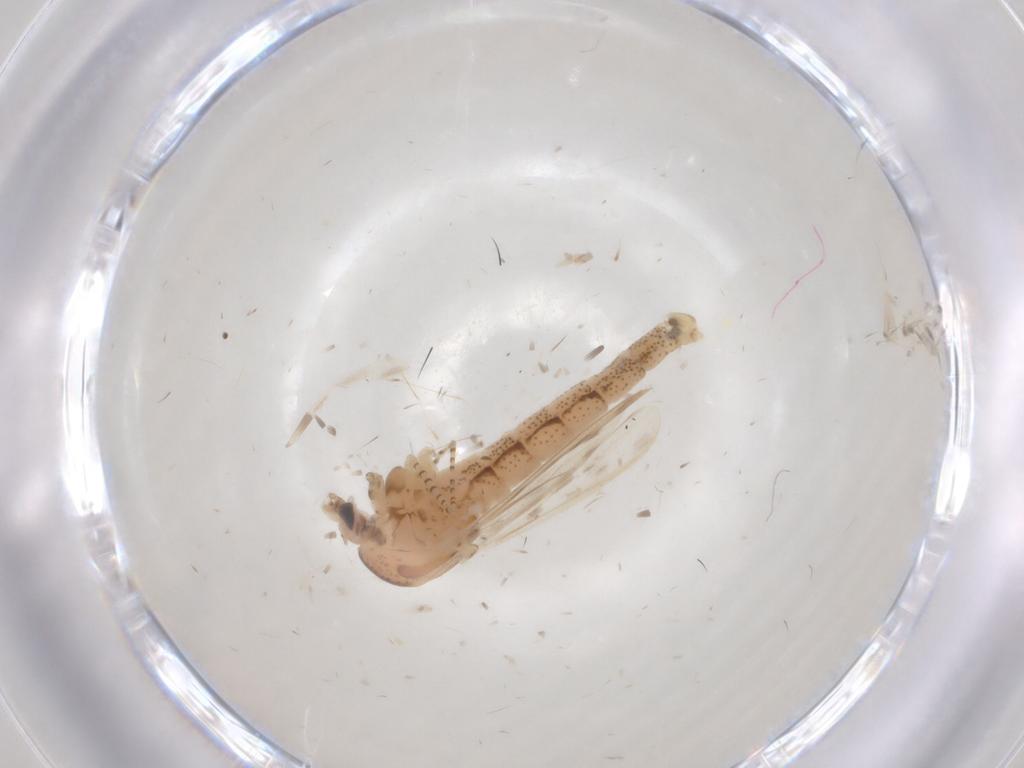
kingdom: Animalia
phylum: Arthropoda
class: Insecta
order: Diptera
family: Chaoboridae
